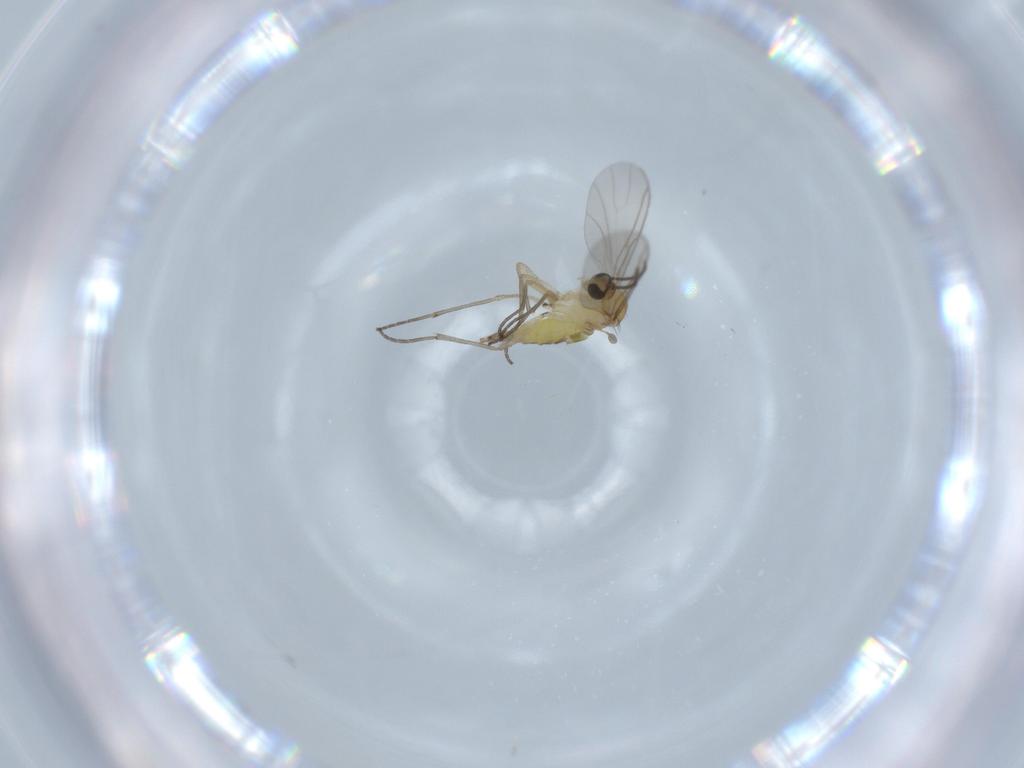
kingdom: Animalia
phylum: Arthropoda
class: Insecta
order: Diptera
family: Sciaridae
